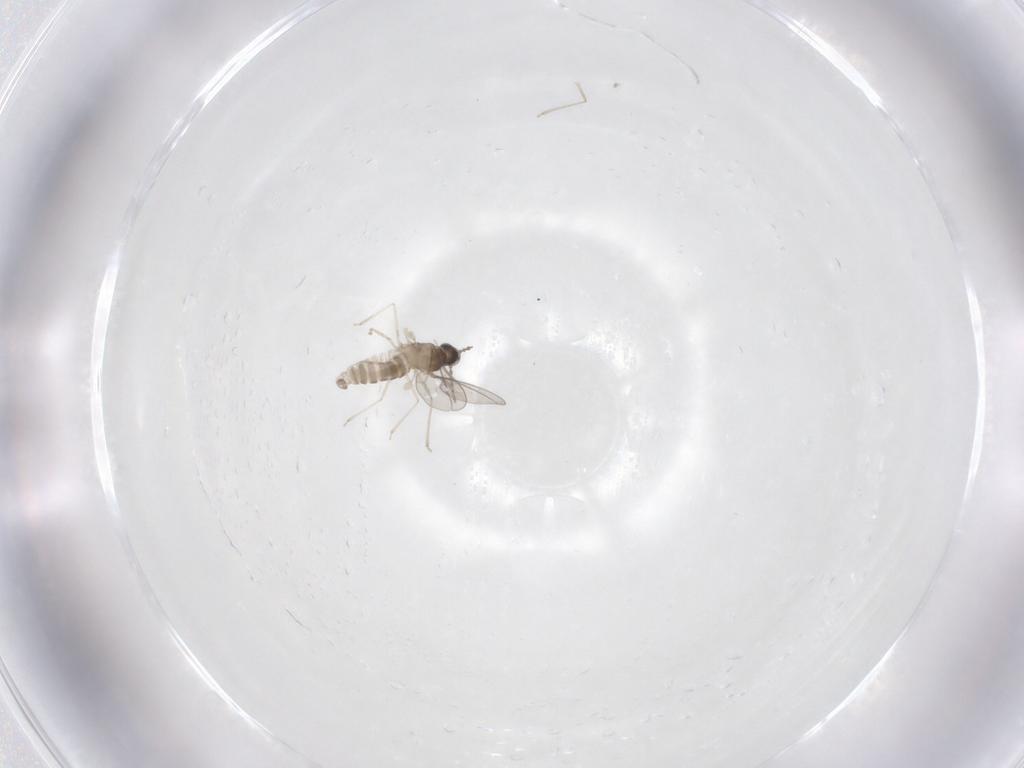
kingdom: Animalia
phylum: Arthropoda
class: Insecta
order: Diptera
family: Cecidomyiidae
